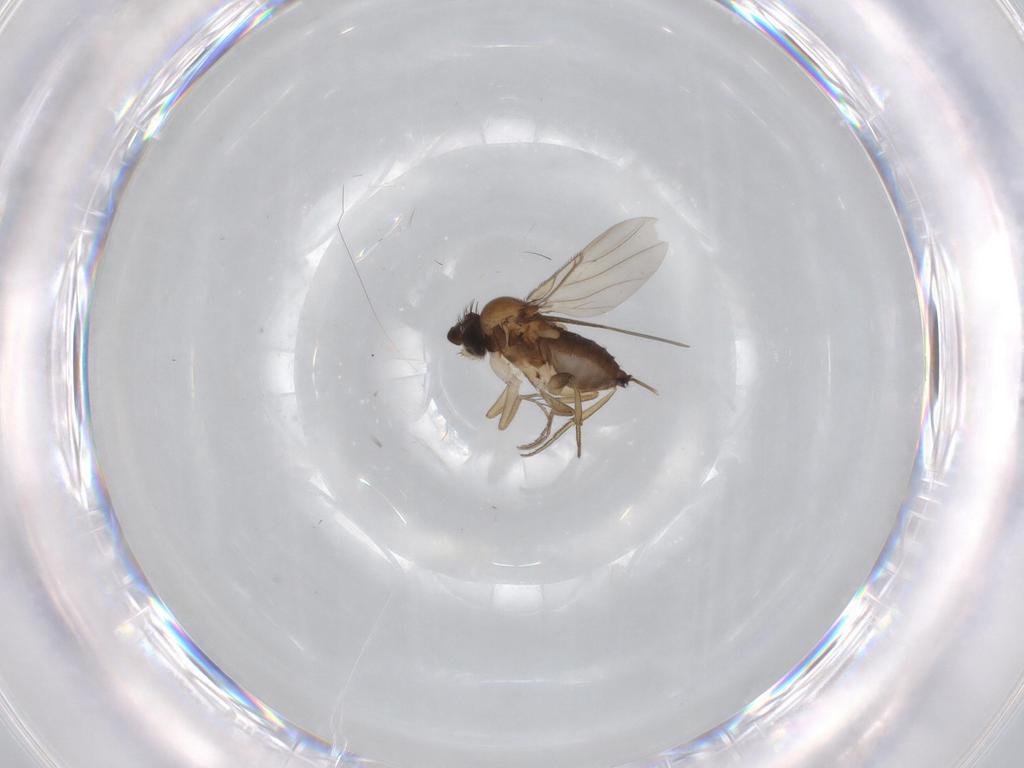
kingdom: Animalia
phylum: Arthropoda
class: Insecta
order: Diptera
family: Phoridae
